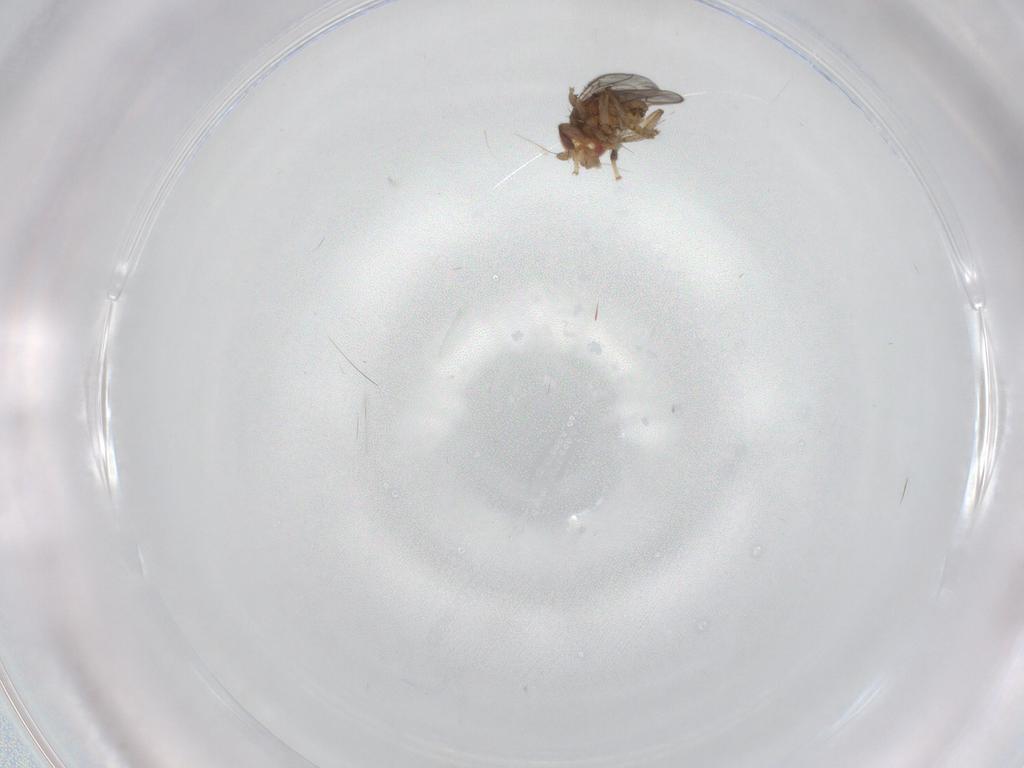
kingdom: Animalia
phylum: Arthropoda
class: Insecta
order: Diptera
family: Sphaeroceridae
